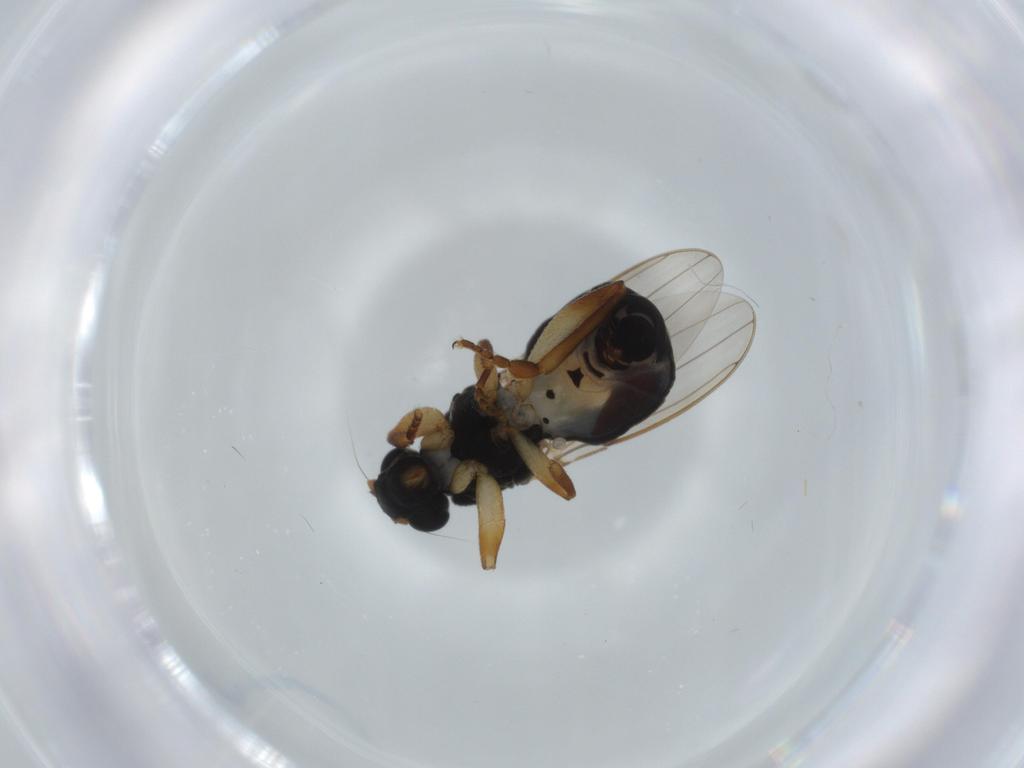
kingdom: Animalia
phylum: Arthropoda
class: Insecta
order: Diptera
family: Sphaeroceridae
